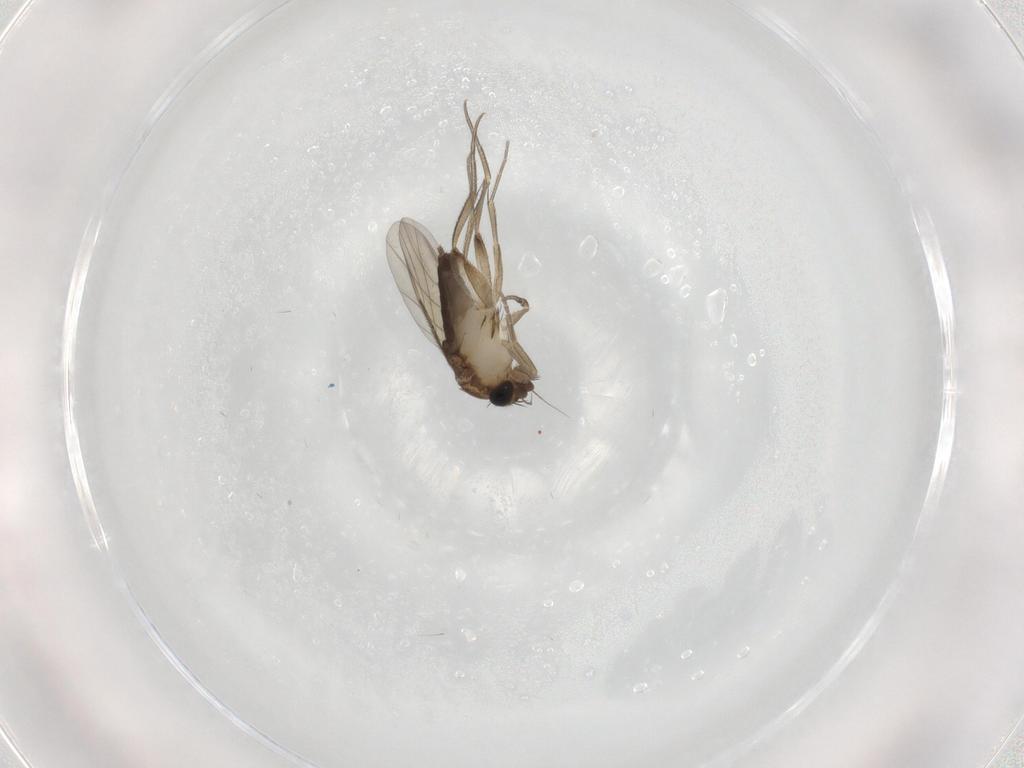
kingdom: Animalia
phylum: Arthropoda
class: Insecta
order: Diptera
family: Phoridae
